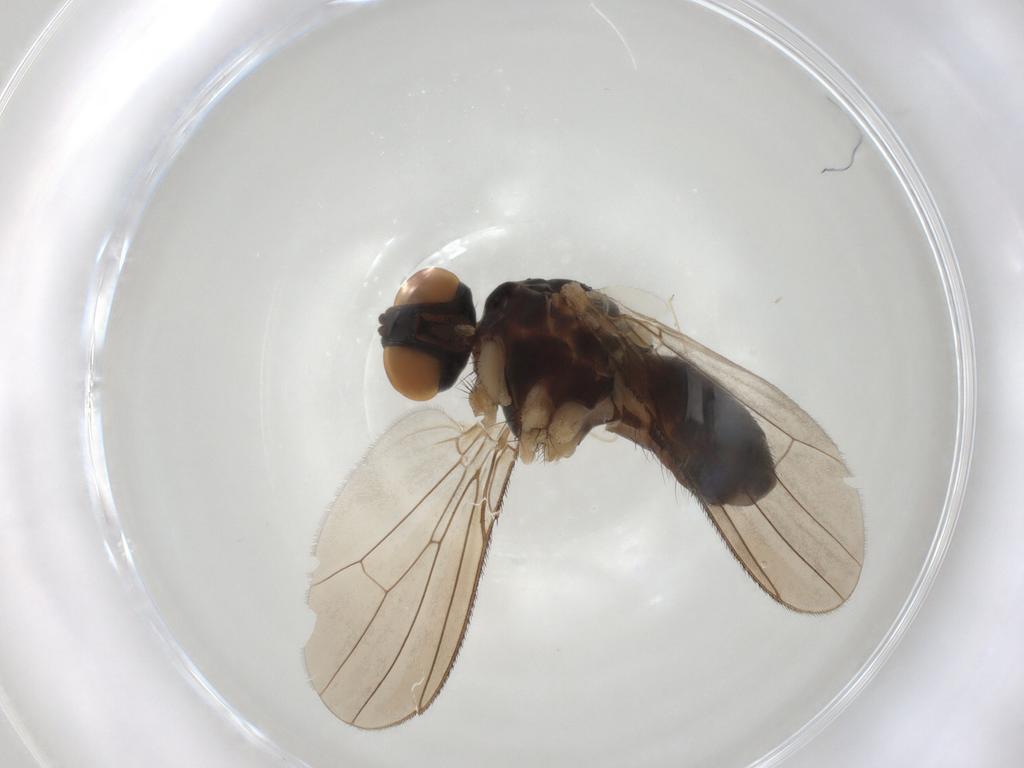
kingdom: Animalia
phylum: Arthropoda
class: Insecta
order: Diptera
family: Muscidae
